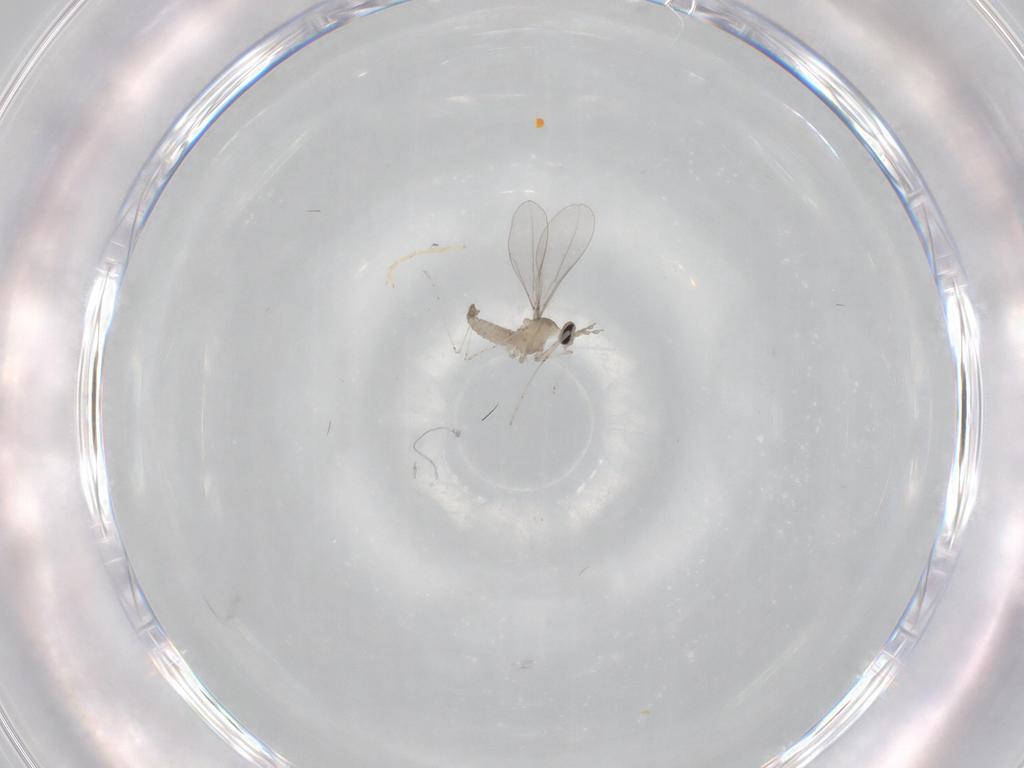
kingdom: Animalia
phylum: Arthropoda
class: Insecta
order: Diptera
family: Cecidomyiidae
